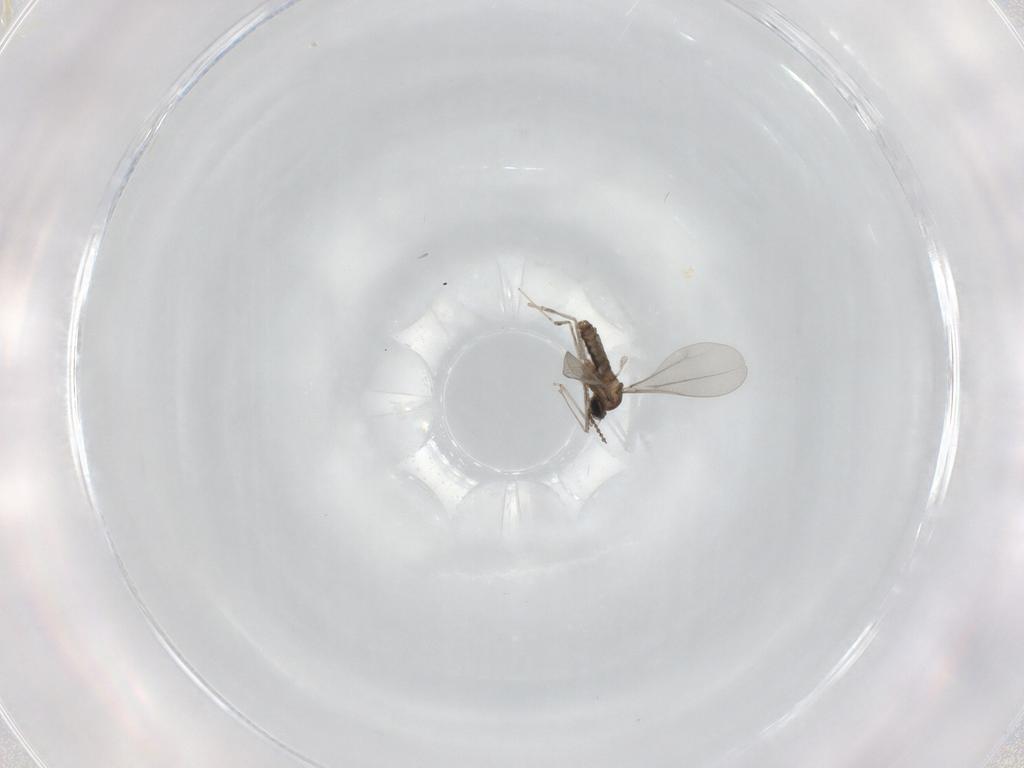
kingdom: Animalia
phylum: Arthropoda
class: Insecta
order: Diptera
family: Cecidomyiidae
